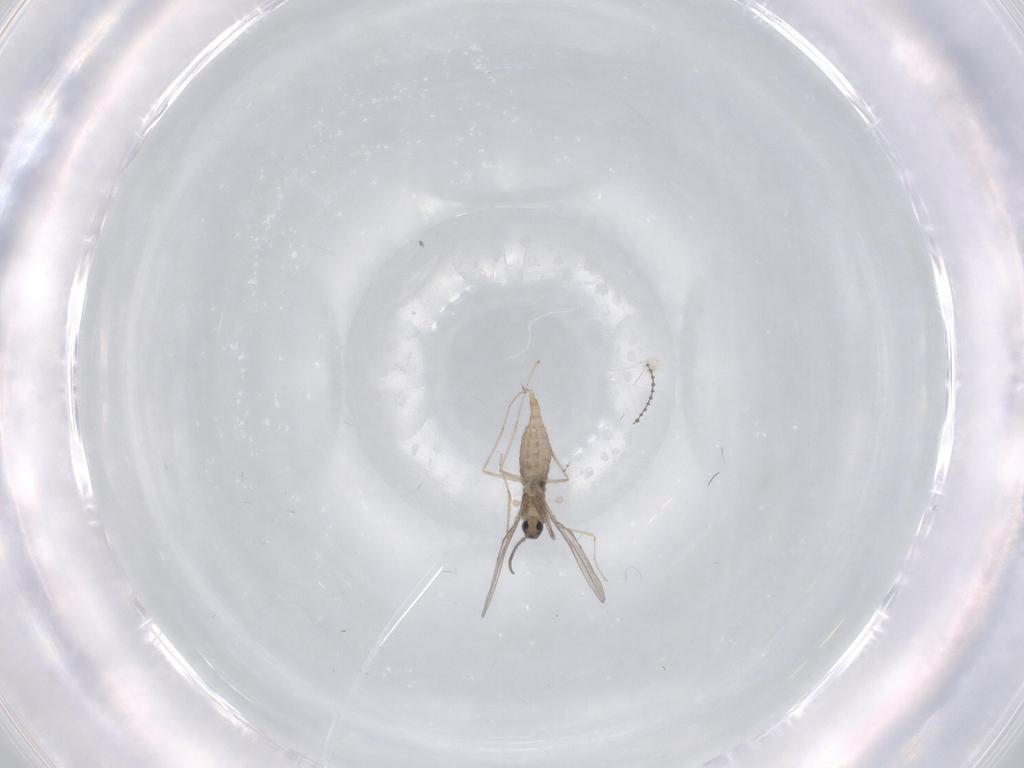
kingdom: Animalia
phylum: Arthropoda
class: Insecta
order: Diptera
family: Cecidomyiidae
